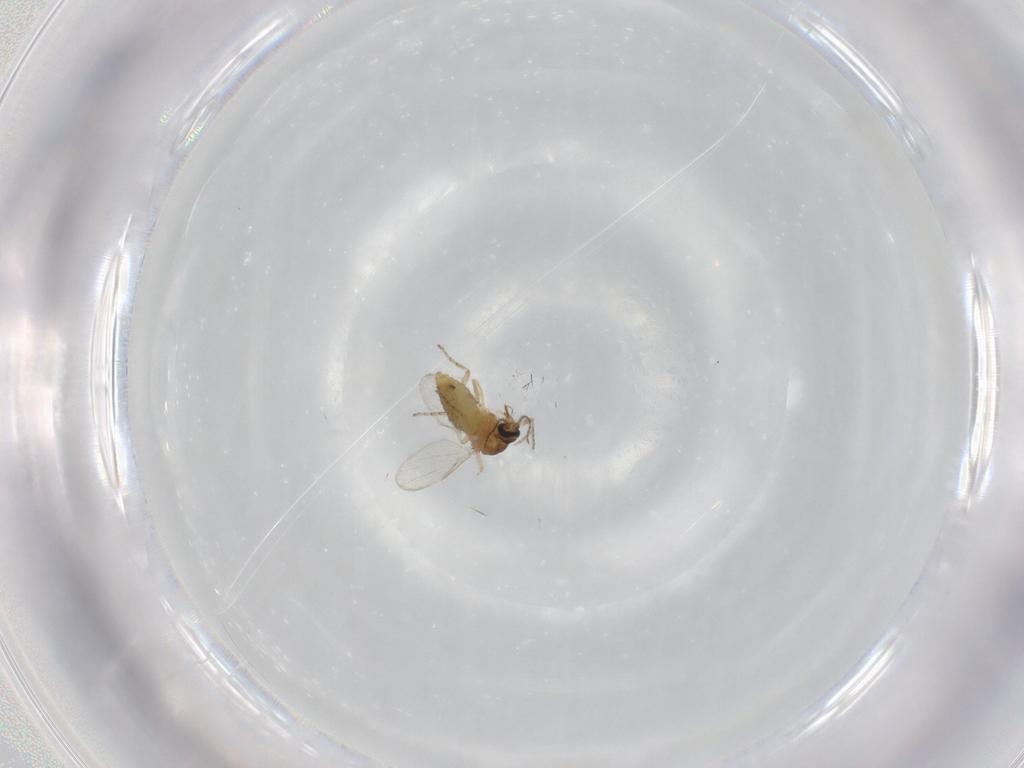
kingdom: Animalia
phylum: Arthropoda
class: Insecta
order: Diptera
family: Ceratopogonidae
